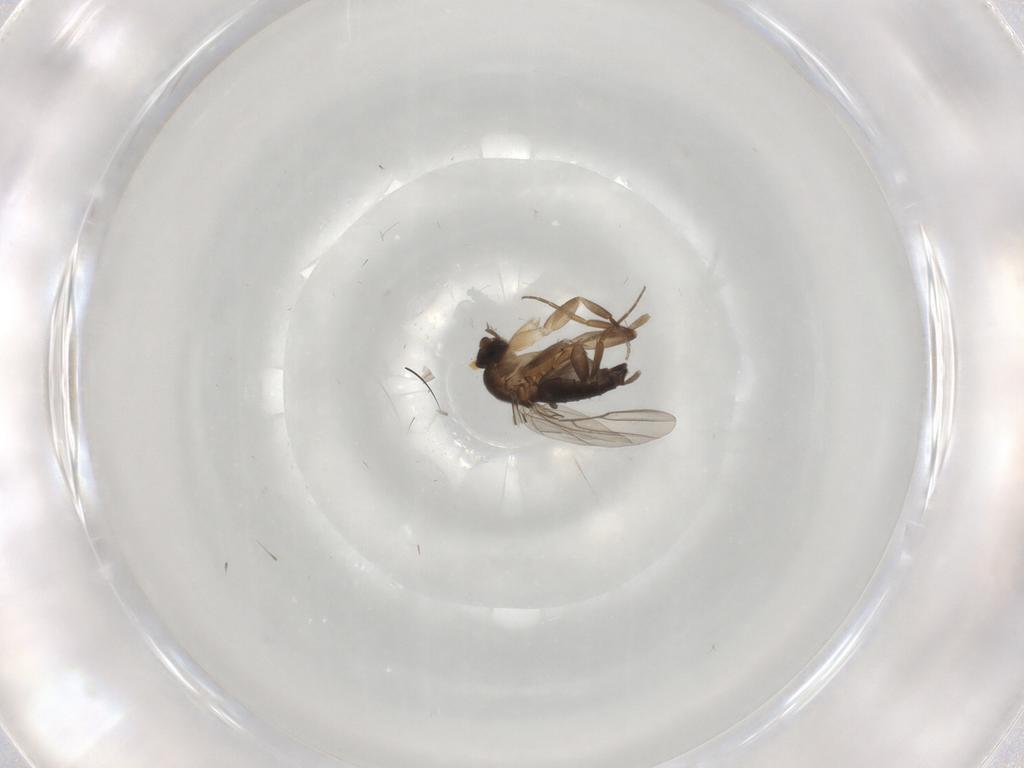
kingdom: Animalia
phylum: Arthropoda
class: Insecta
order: Diptera
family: Phoridae
